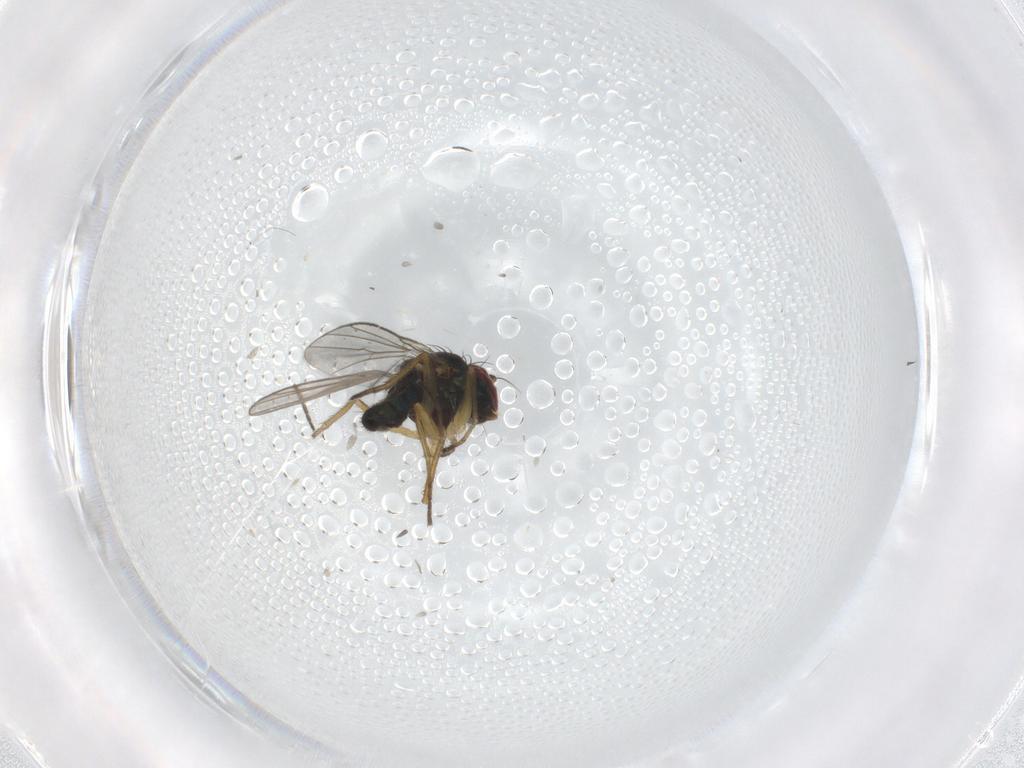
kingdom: Animalia
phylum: Arthropoda
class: Insecta
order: Diptera
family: Dolichopodidae
